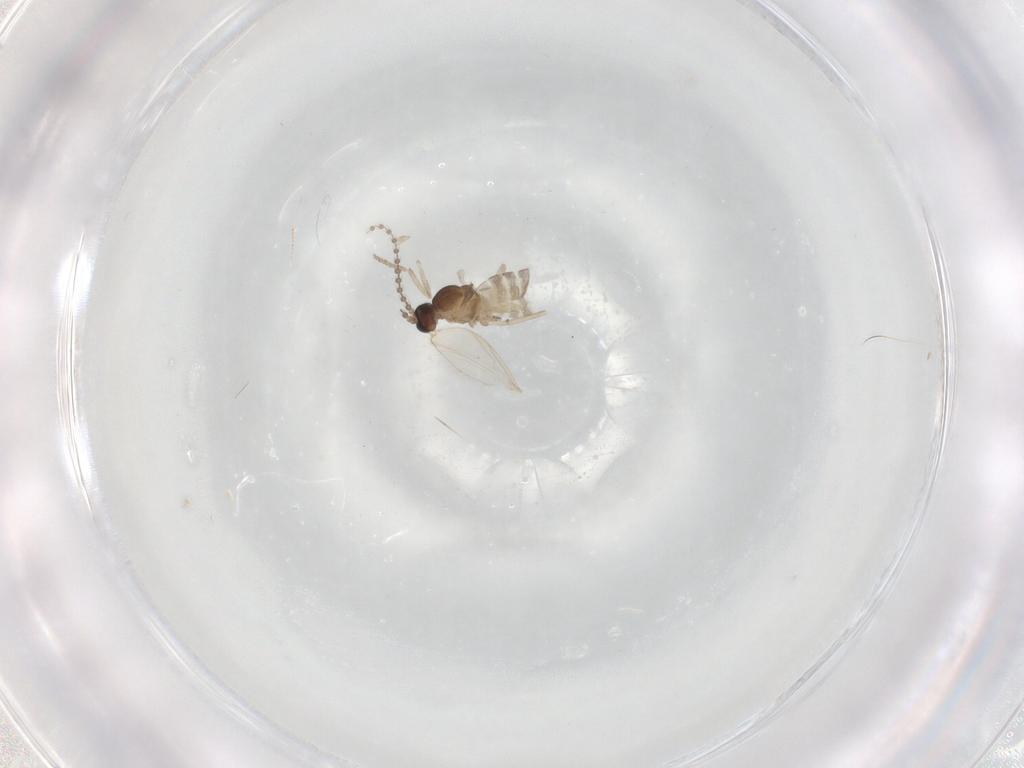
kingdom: Animalia
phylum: Arthropoda
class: Insecta
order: Diptera
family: Cecidomyiidae
